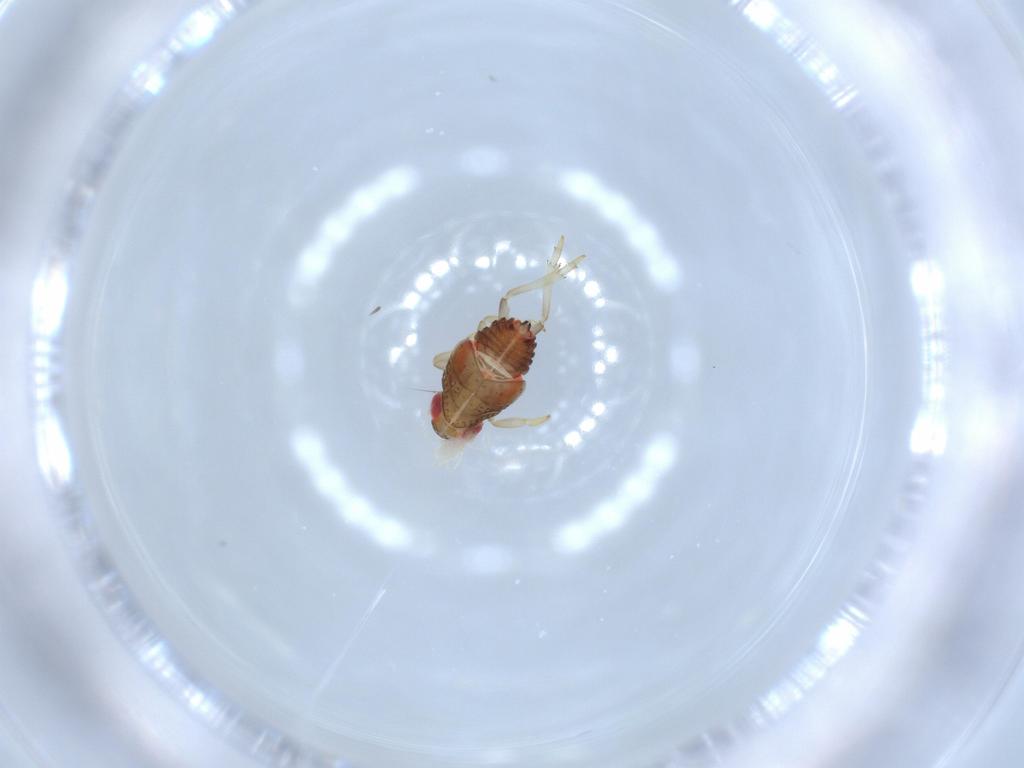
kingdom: Animalia
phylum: Arthropoda
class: Insecta
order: Hemiptera
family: Issidae
